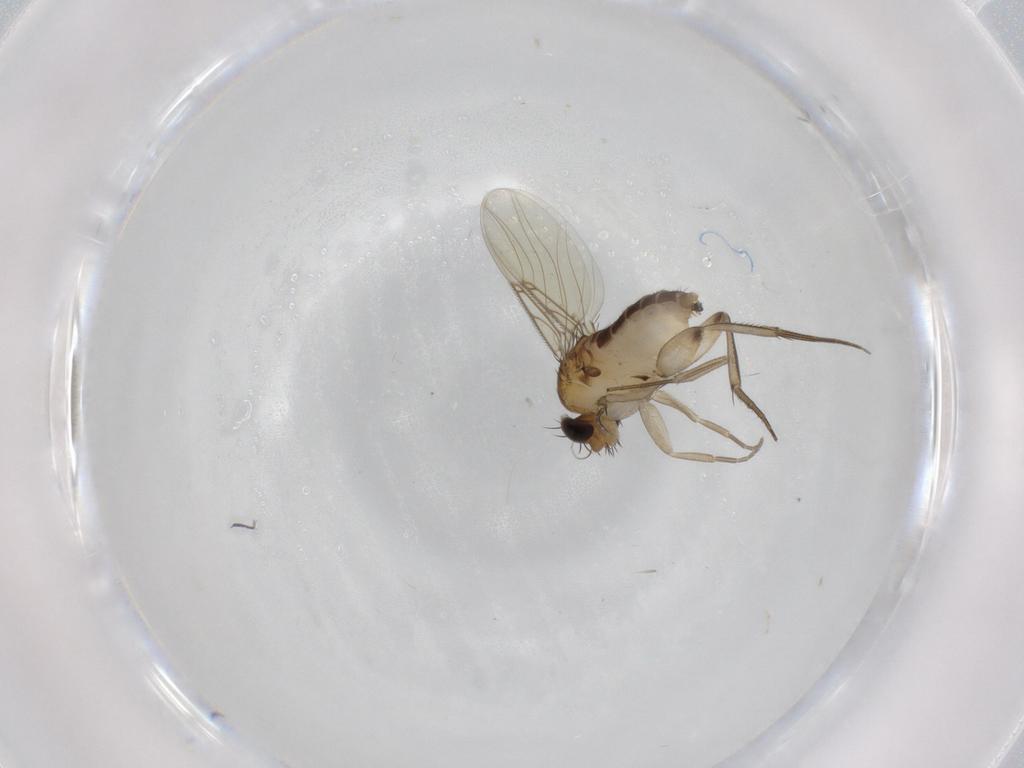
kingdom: Animalia
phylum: Arthropoda
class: Insecta
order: Diptera
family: Phoridae
